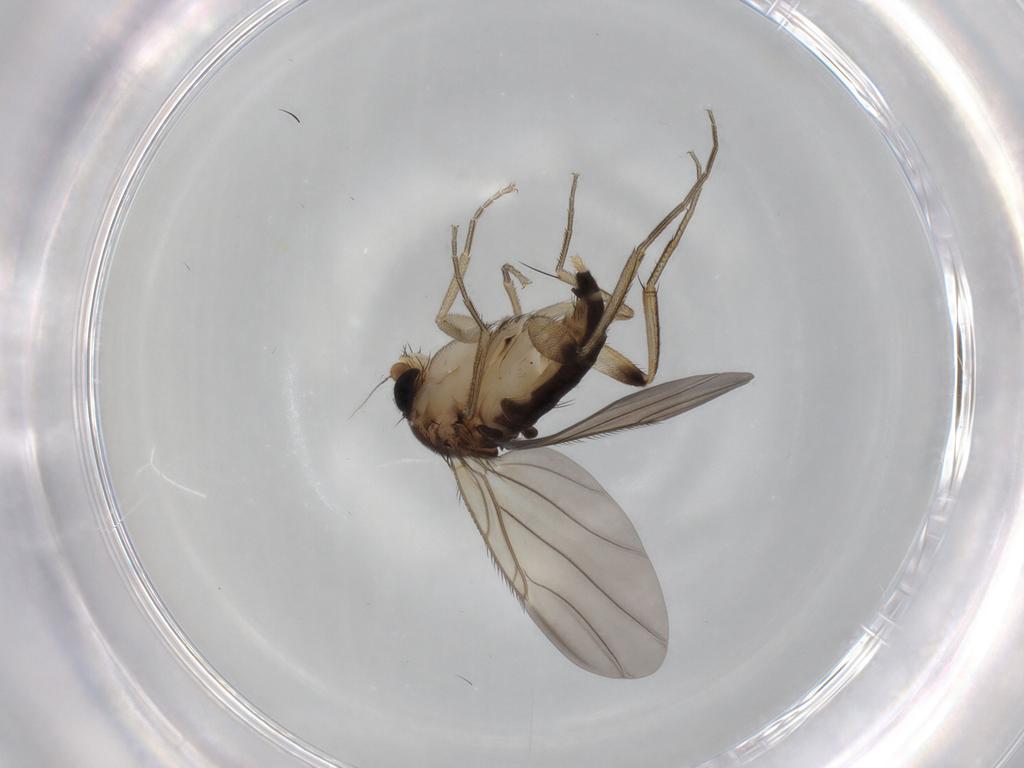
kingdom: Animalia
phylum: Arthropoda
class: Insecta
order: Diptera
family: Phoridae
